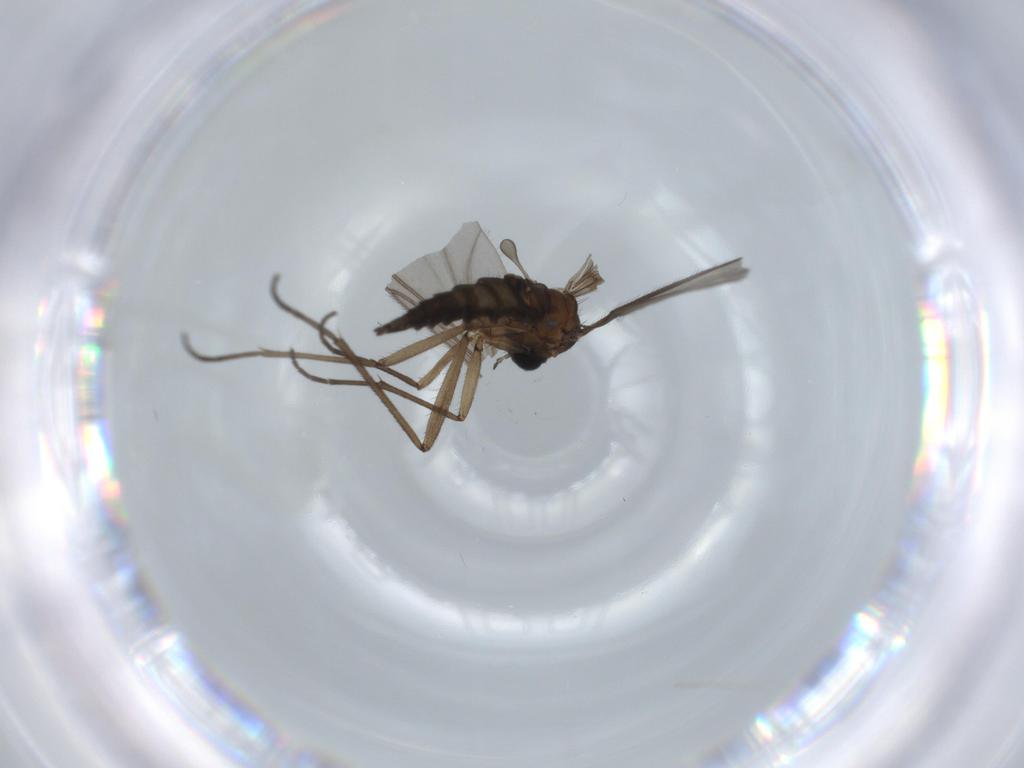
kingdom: Animalia
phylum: Arthropoda
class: Insecta
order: Diptera
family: Sciaridae
